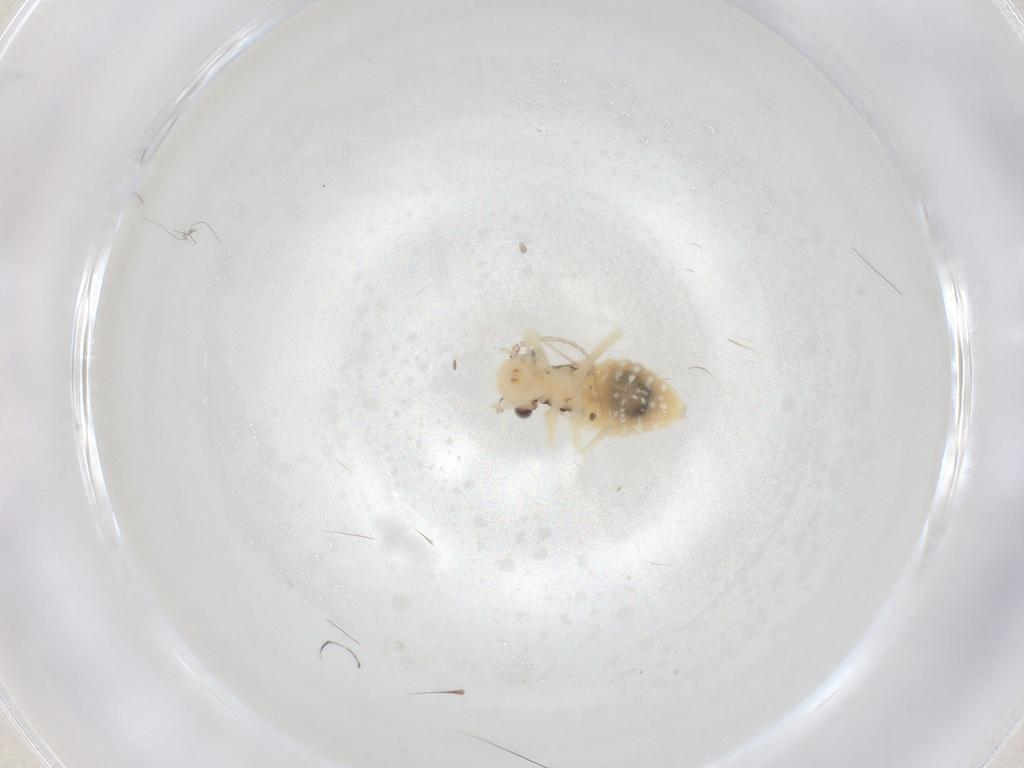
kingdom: Animalia
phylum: Arthropoda
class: Insecta
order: Psocodea
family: Philotarsidae
